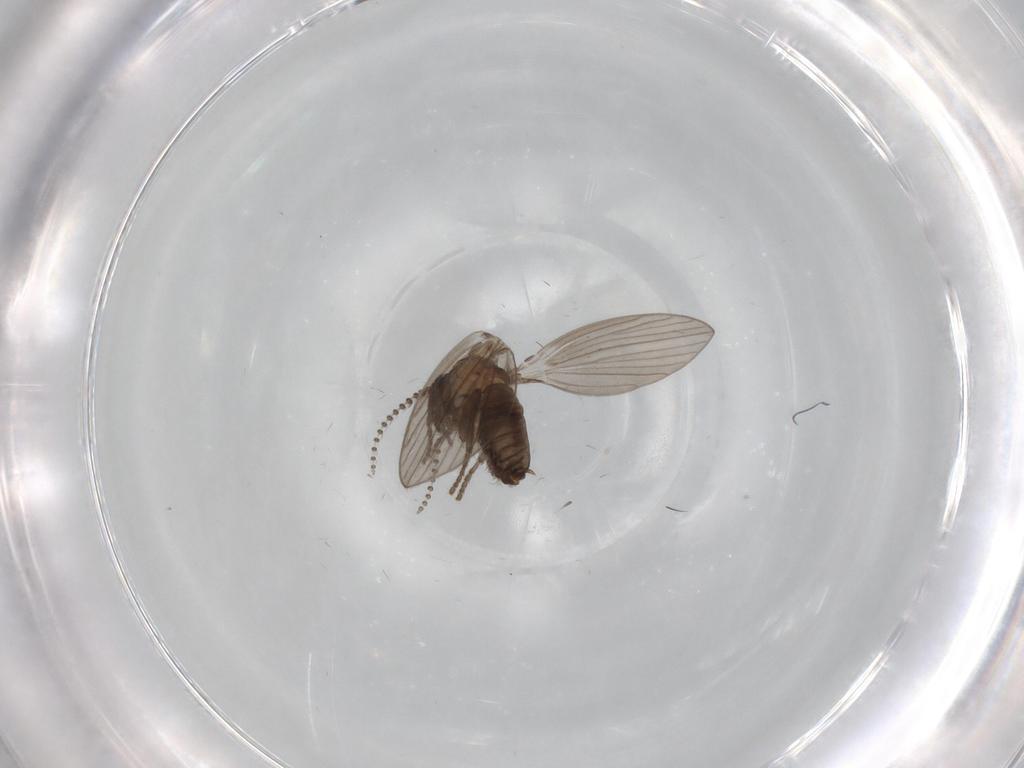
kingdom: Animalia
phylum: Arthropoda
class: Insecta
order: Diptera
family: Psychodidae
